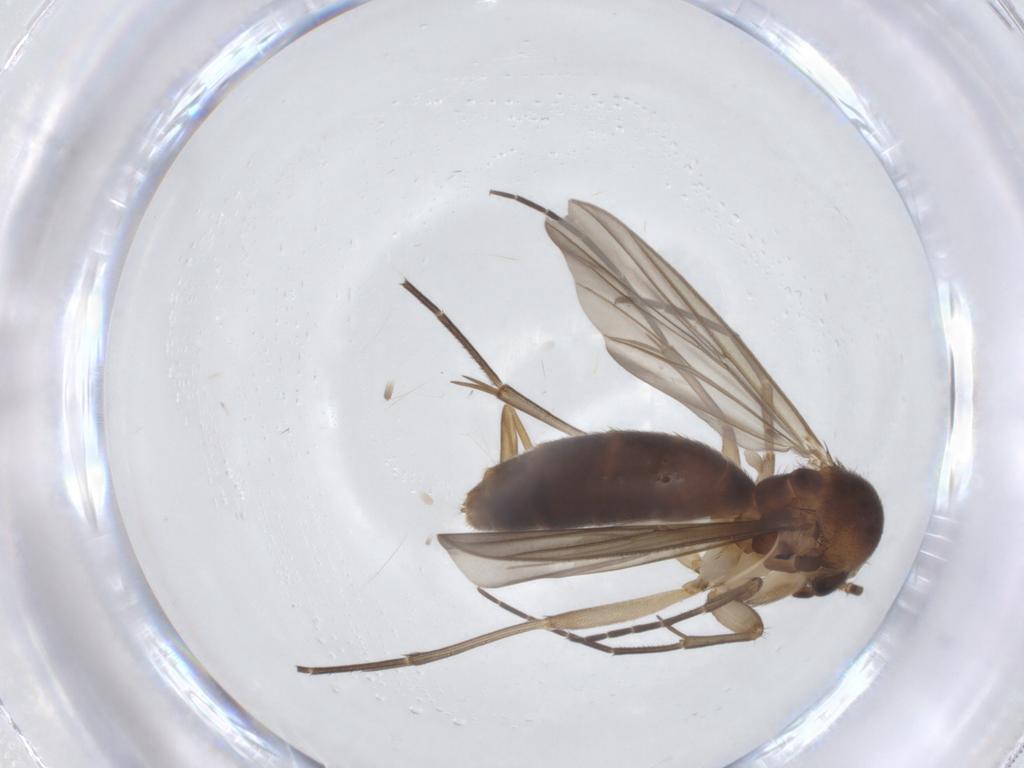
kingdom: Animalia
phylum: Arthropoda
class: Insecta
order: Diptera
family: Mycetophilidae
